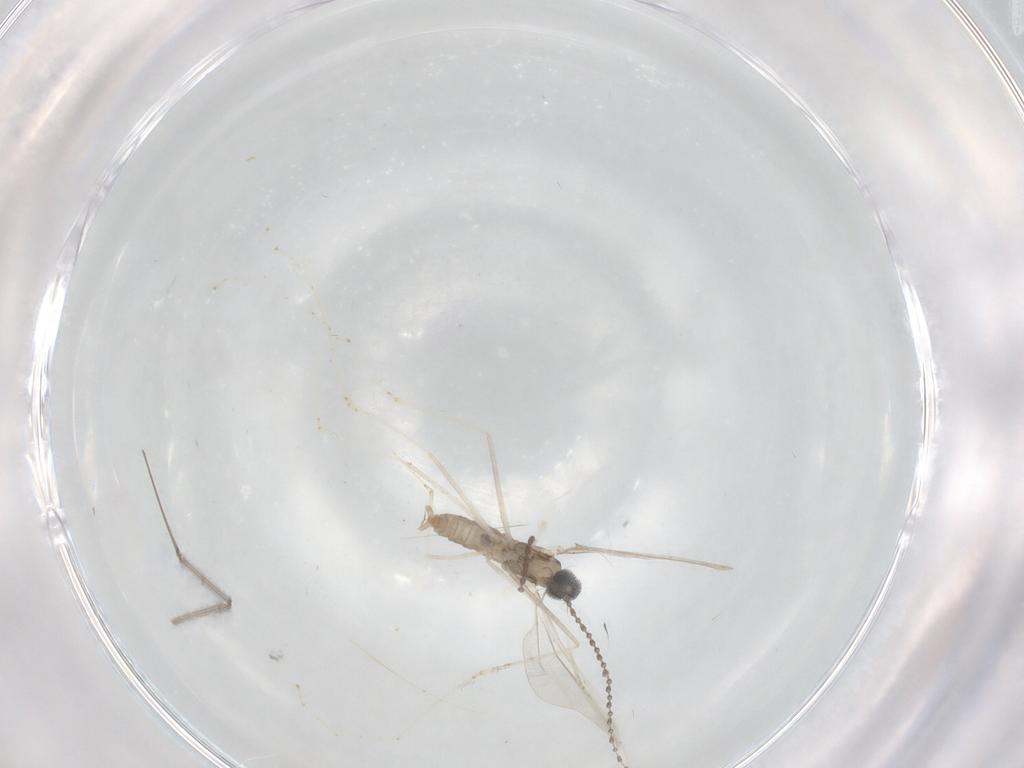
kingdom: Animalia
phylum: Arthropoda
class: Insecta
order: Diptera
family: Cecidomyiidae
